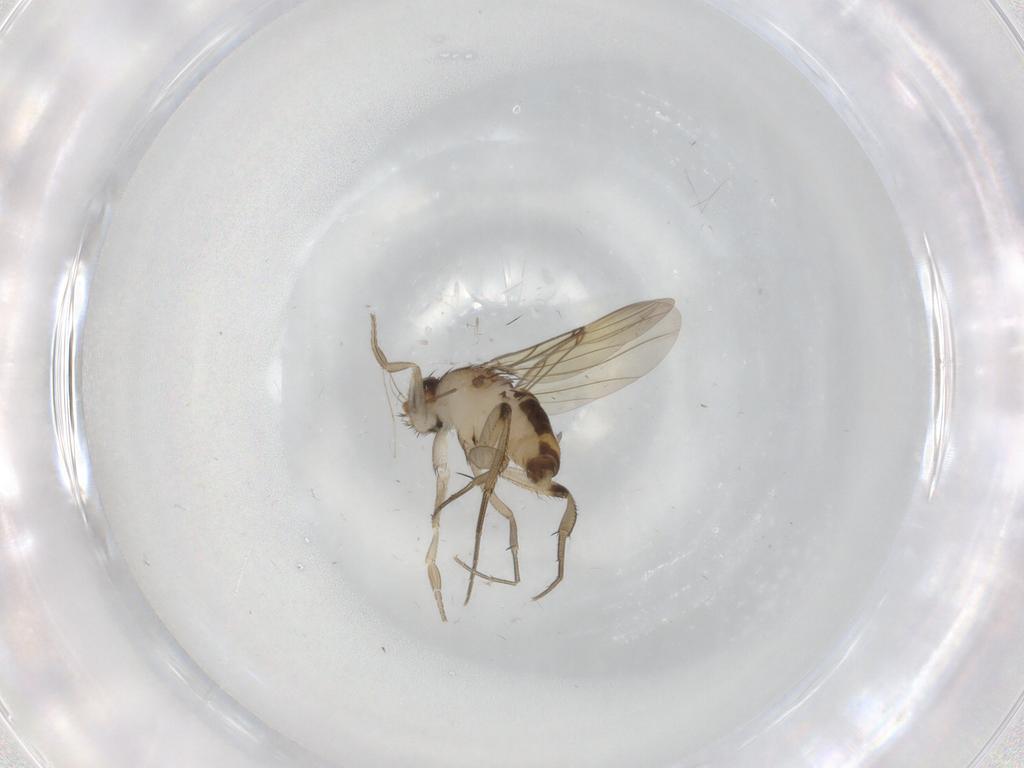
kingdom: Animalia
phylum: Arthropoda
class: Insecta
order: Diptera
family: Phoridae
